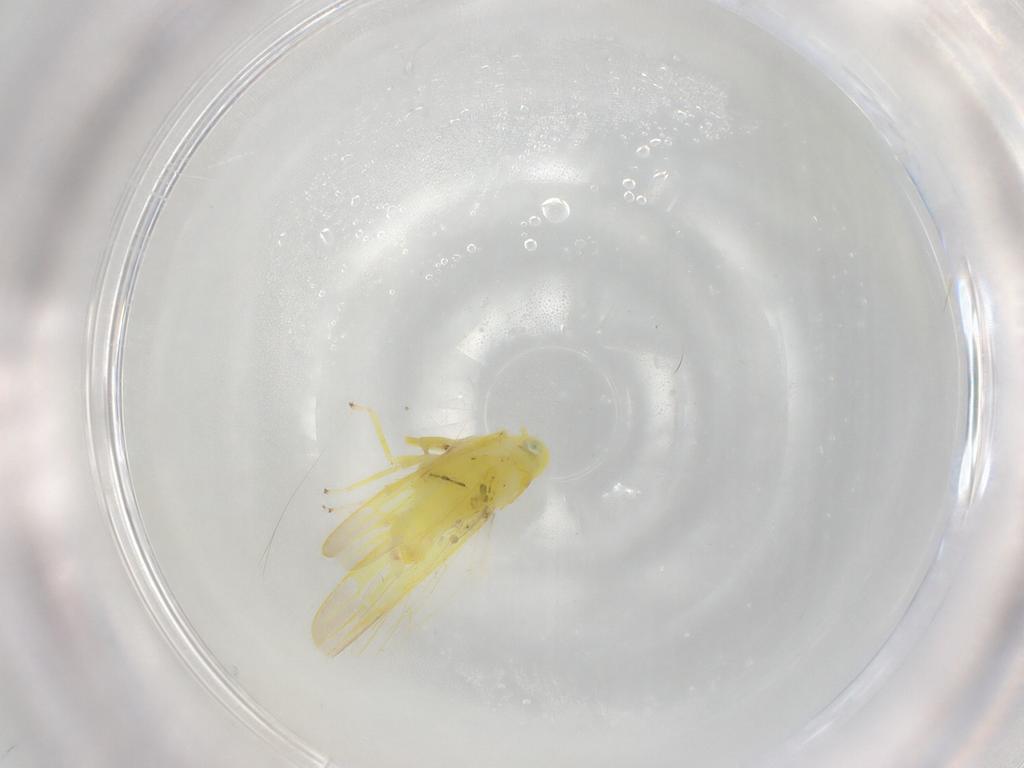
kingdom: Animalia
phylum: Arthropoda
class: Insecta
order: Hemiptera
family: Cicadellidae
